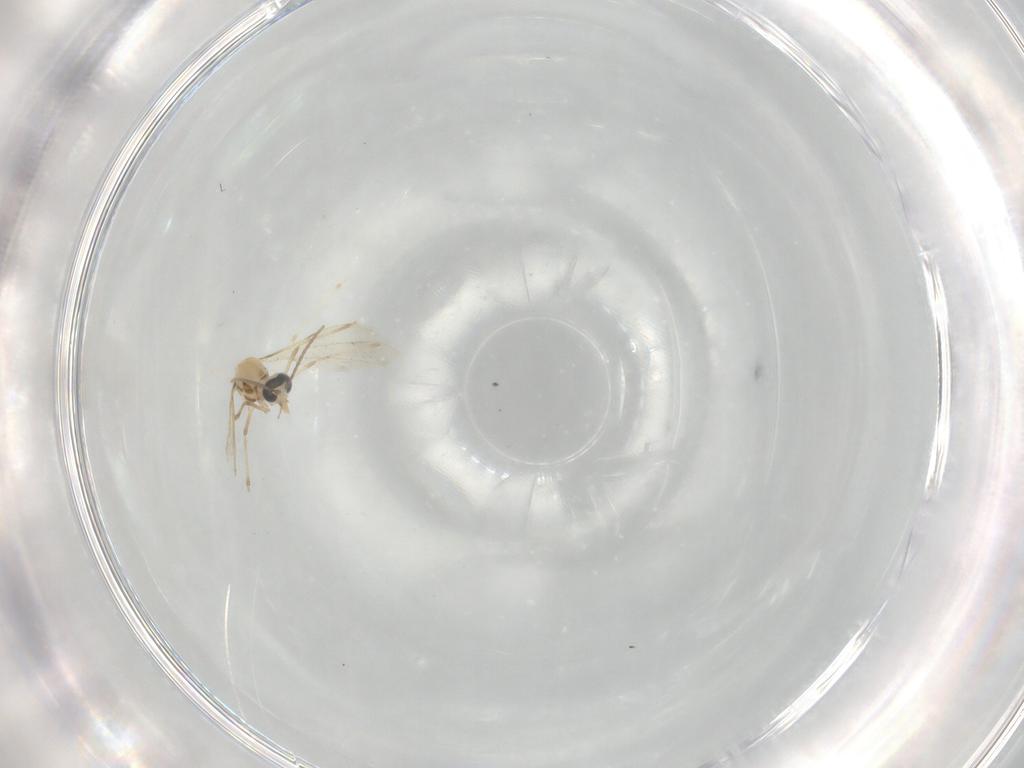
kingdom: Animalia
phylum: Arthropoda
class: Insecta
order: Diptera
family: Cecidomyiidae
